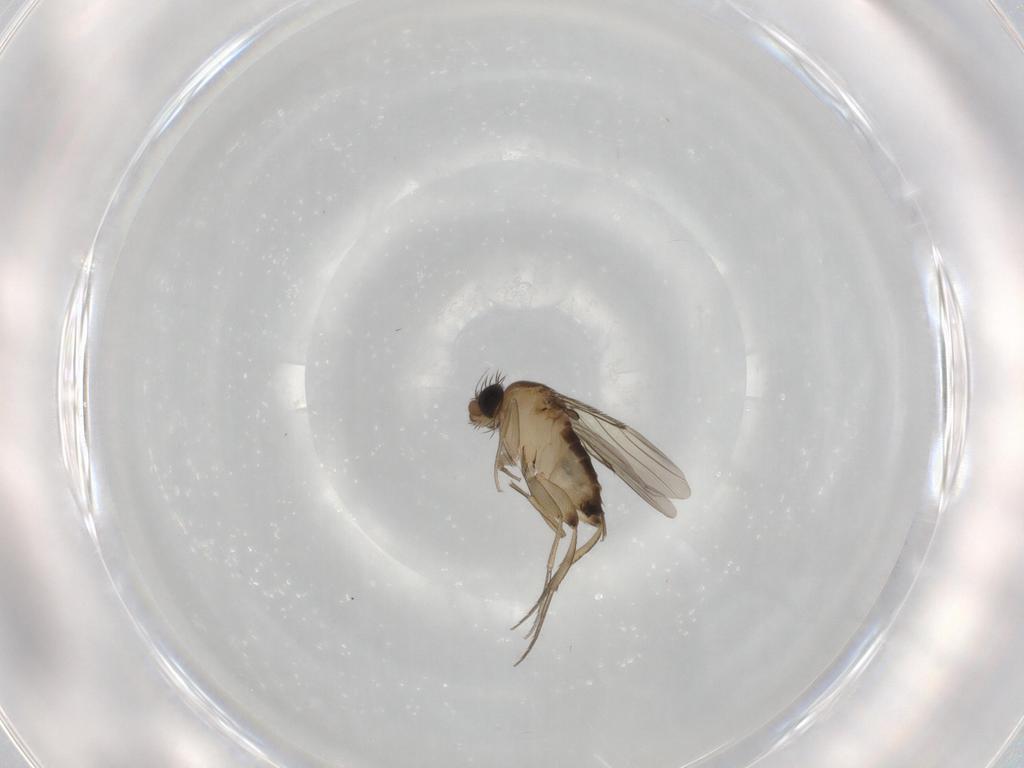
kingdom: Animalia
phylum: Arthropoda
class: Insecta
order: Diptera
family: Phoridae
